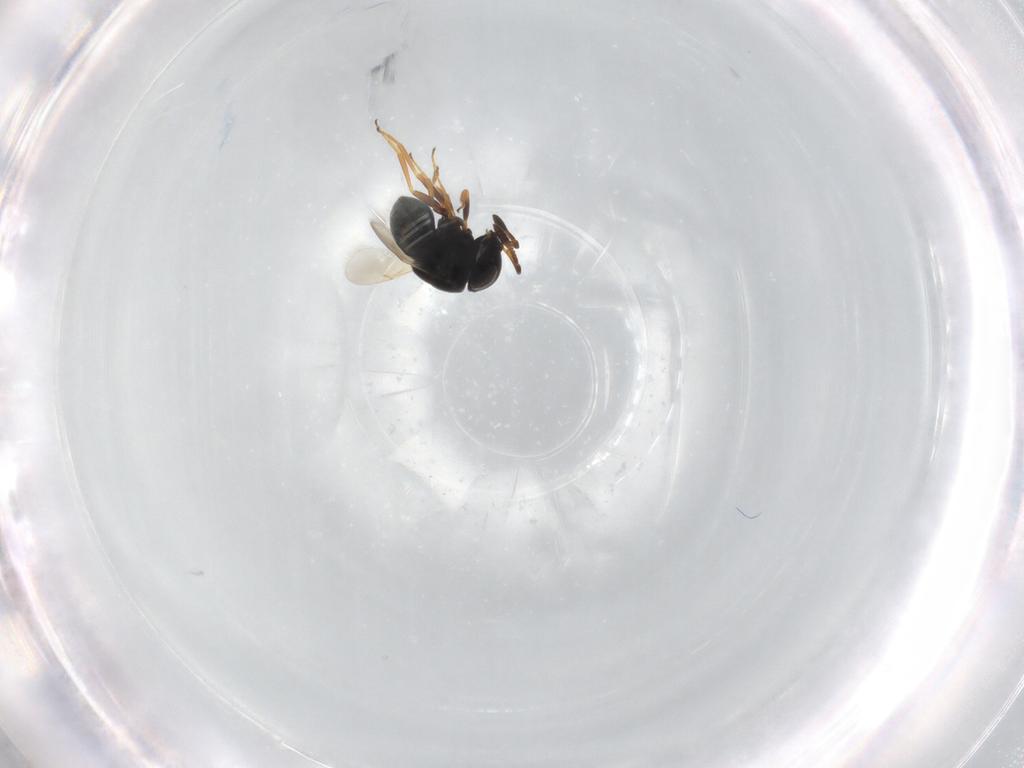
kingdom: Animalia
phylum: Arthropoda
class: Insecta
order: Hymenoptera
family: Scelionidae
